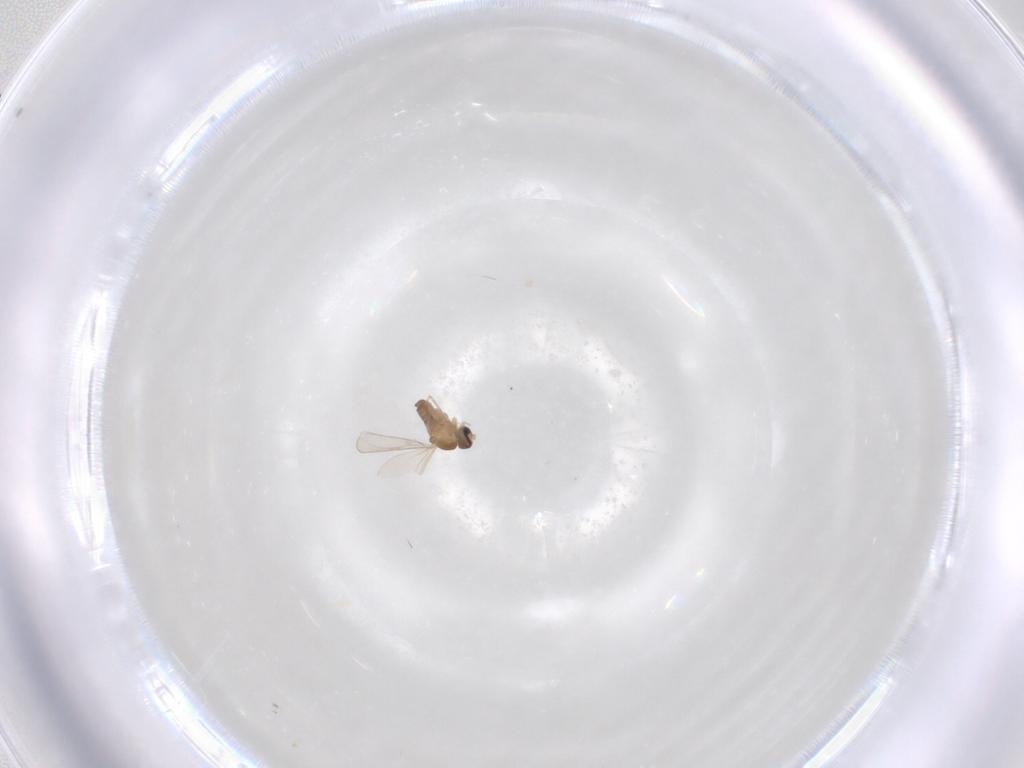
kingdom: Animalia
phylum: Arthropoda
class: Insecta
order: Diptera
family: Cecidomyiidae
